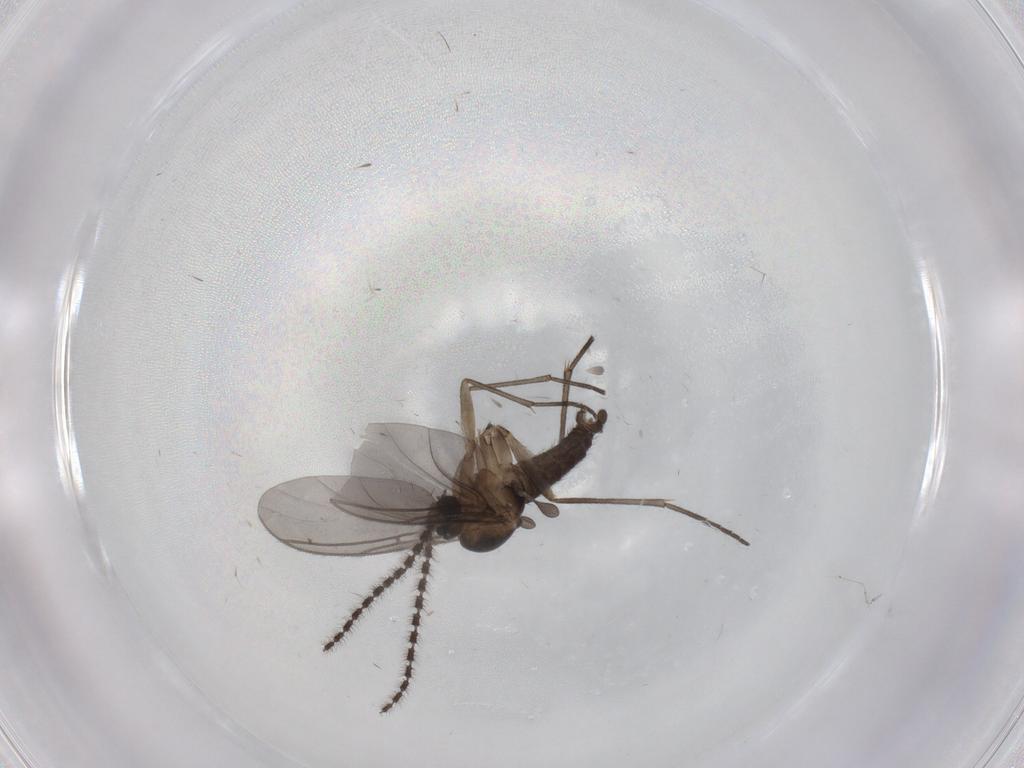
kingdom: Animalia
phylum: Arthropoda
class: Insecta
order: Diptera
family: Sciaridae
